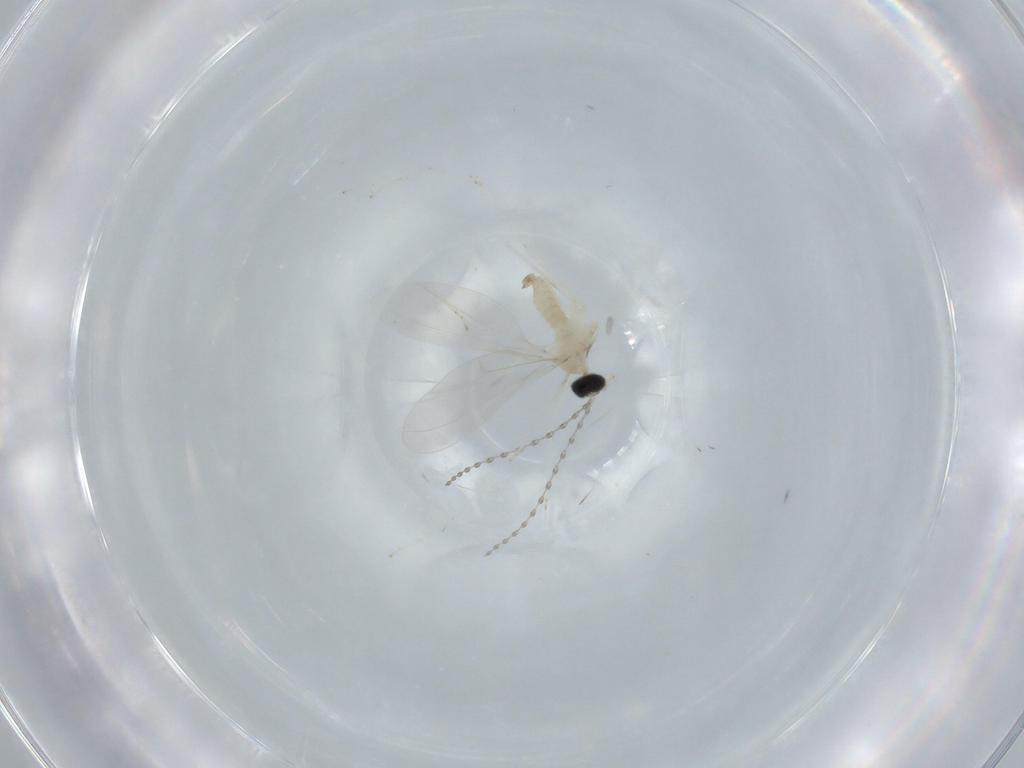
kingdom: Animalia
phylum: Arthropoda
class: Insecta
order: Diptera
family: Cecidomyiidae
